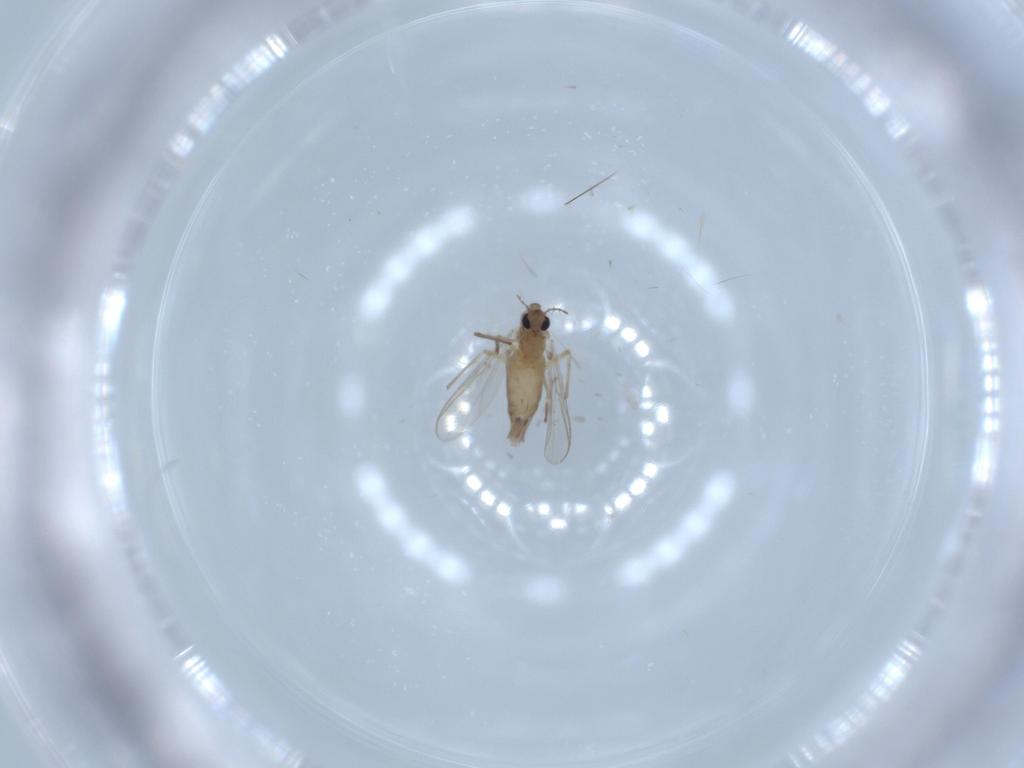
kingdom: Animalia
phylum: Arthropoda
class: Insecta
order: Diptera
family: Chironomidae
